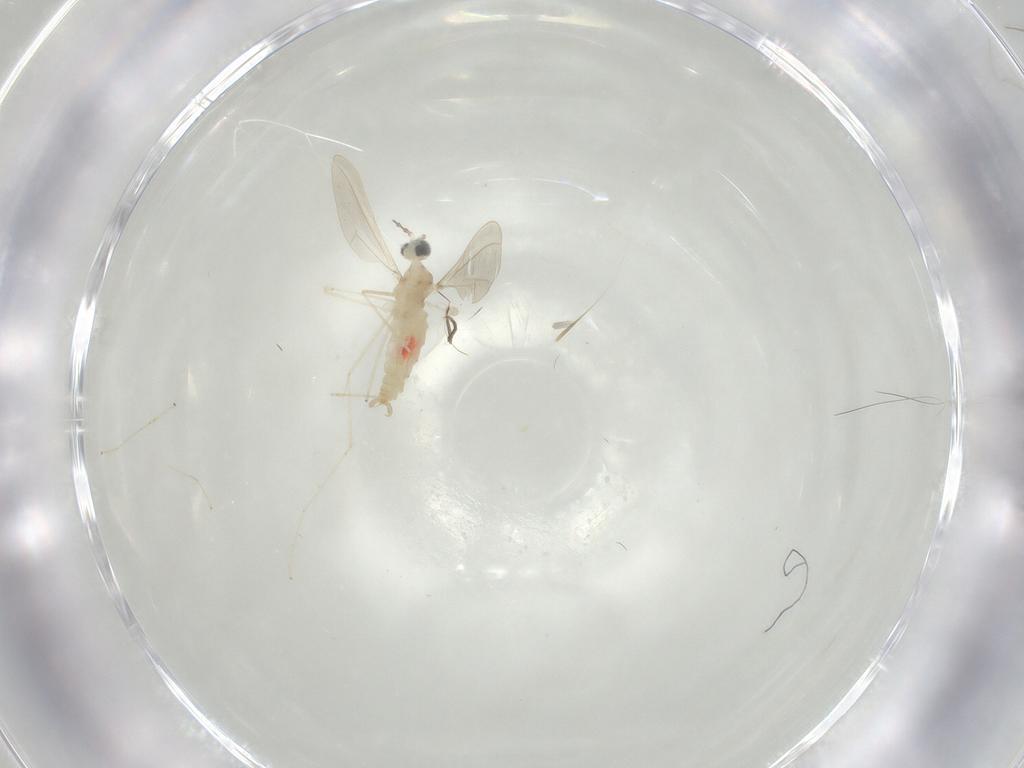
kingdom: Animalia
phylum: Arthropoda
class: Insecta
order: Diptera
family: Cecidomyiidae
